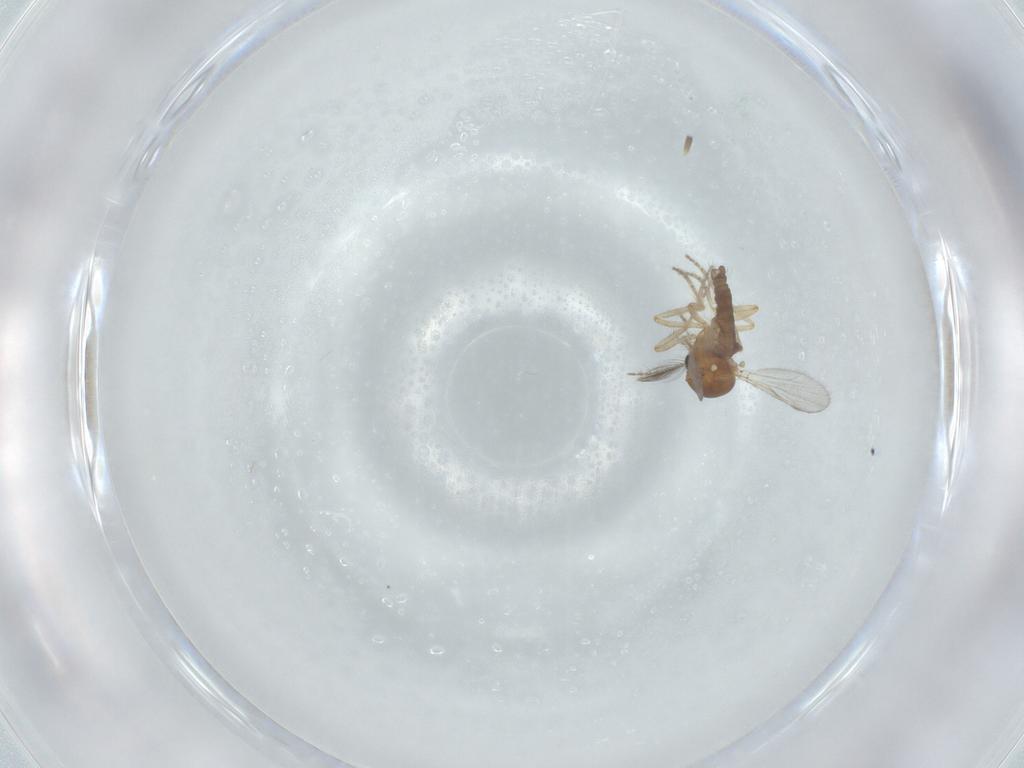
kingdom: Animalia
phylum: Arthropoda
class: Insecta
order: Diptera
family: Ceratopogonidae
